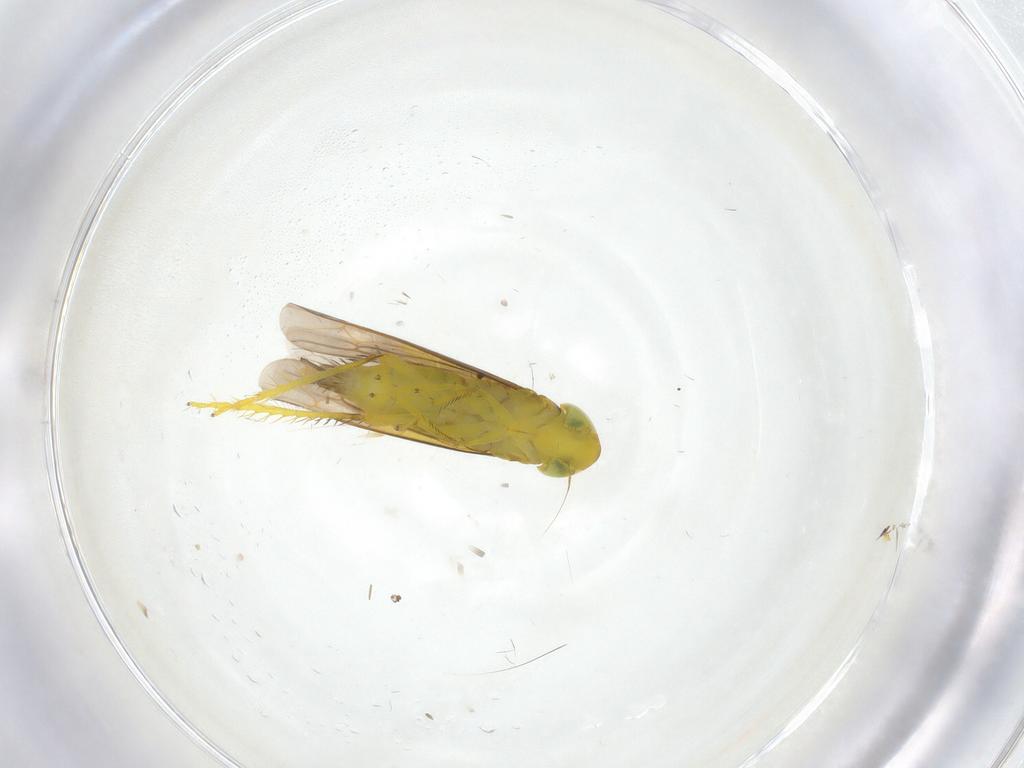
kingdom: Animalia
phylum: Arthropoda
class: Insecta
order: Hemiptera
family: Cicadellidae
